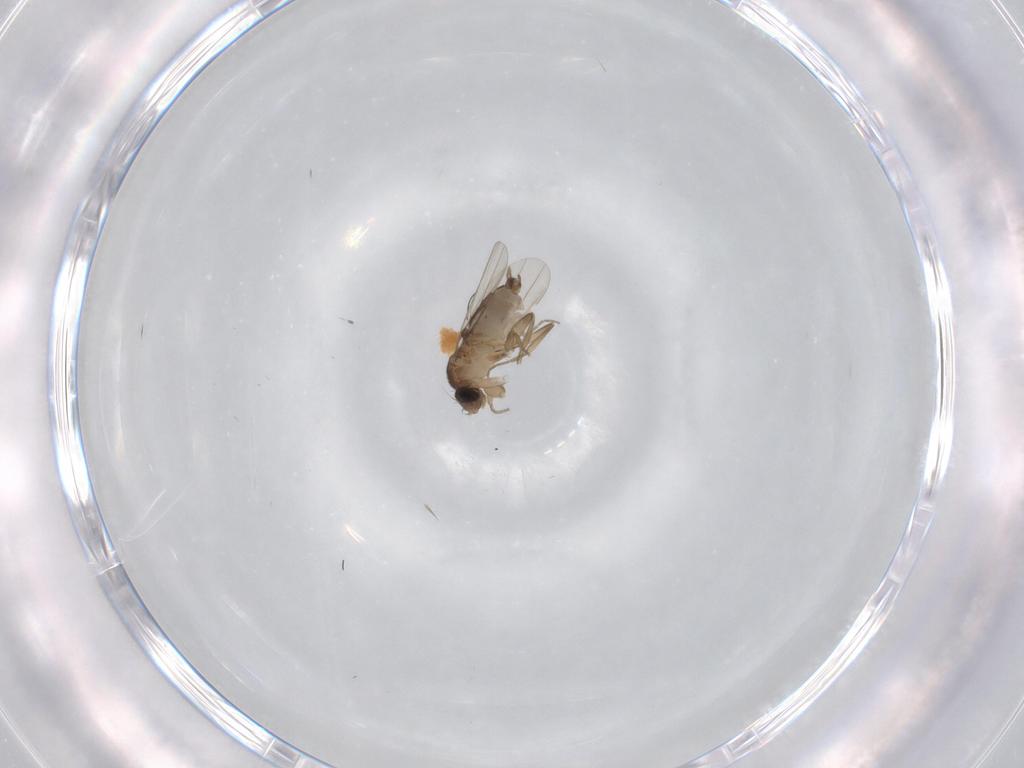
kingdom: Animalia
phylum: Arthropoda
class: Insecta
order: Diptera
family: Phoridae
